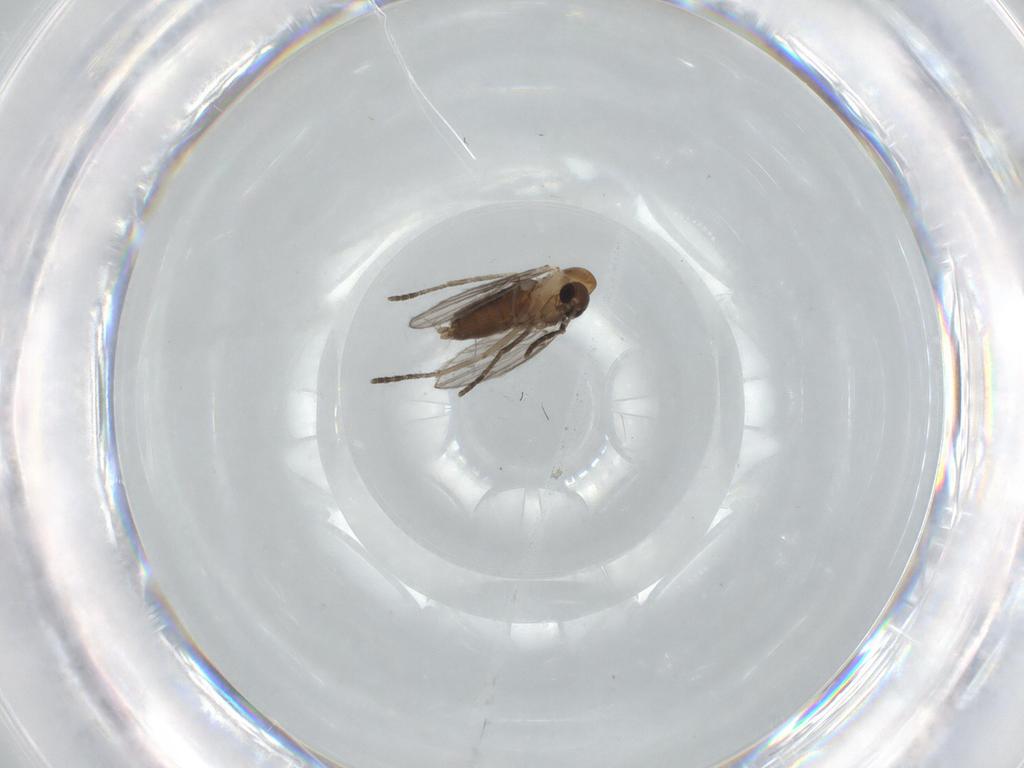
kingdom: Animalia
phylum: Arthropoda
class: Insecta
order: Diptera
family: Psychodidae
